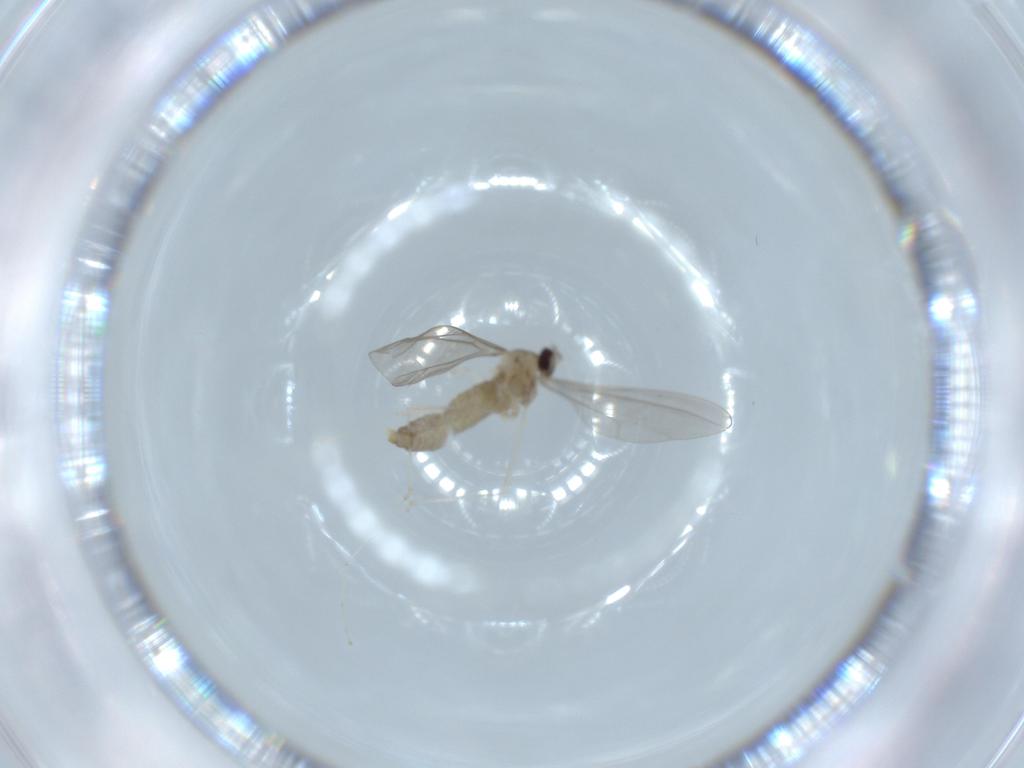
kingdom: Animalia
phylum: Arthropoda
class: Insecta
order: Diptera
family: Cecidomyiidae
